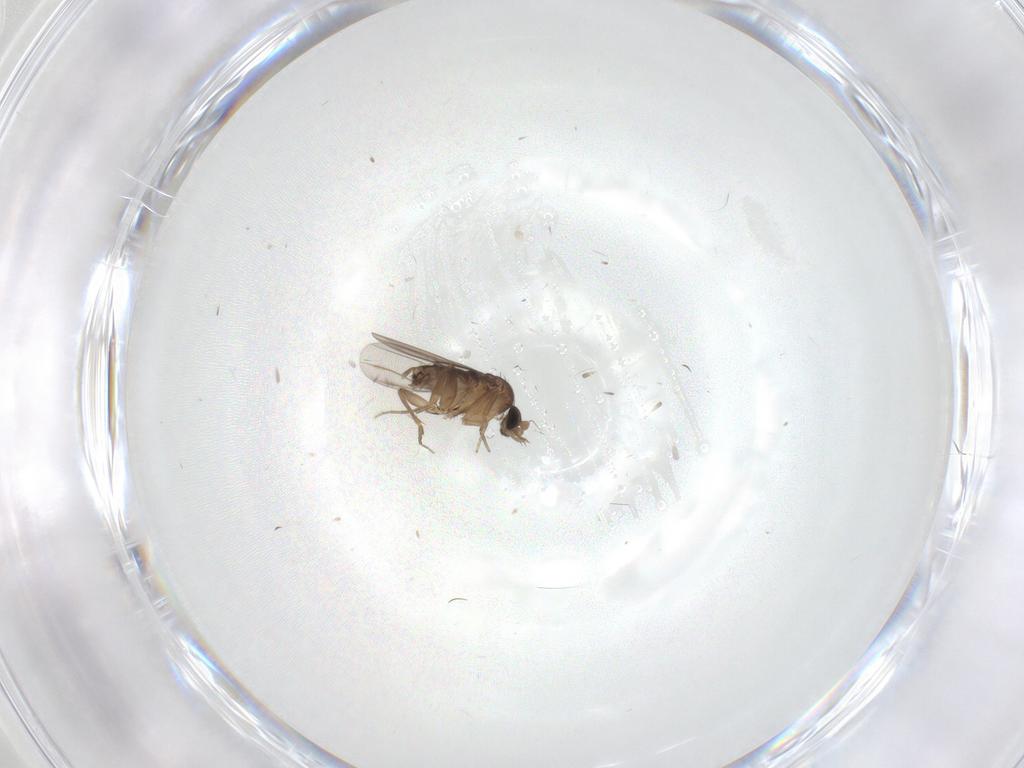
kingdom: Animalia
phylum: Arthropoda
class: Insecta
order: Diptera
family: Phoridae
